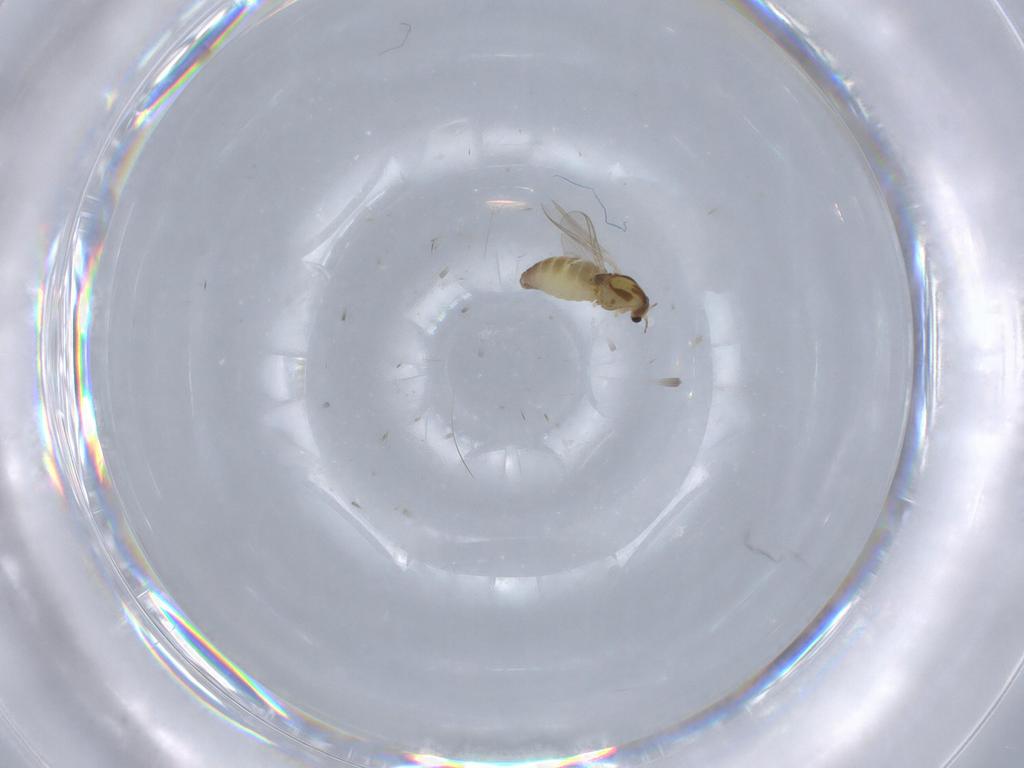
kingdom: Animalia
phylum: Arthropoda
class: Insecta
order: Diptera
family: Chironomidae
